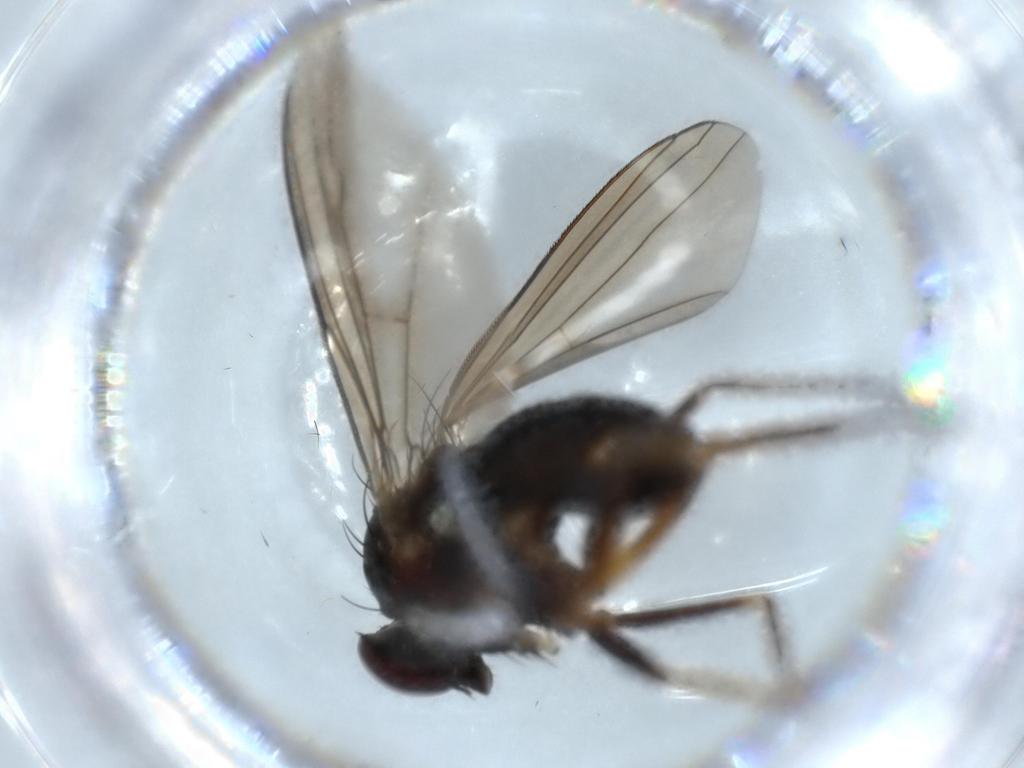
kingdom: Animalia
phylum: Arthropoda
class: Insecta
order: Diptera
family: Asilidae
